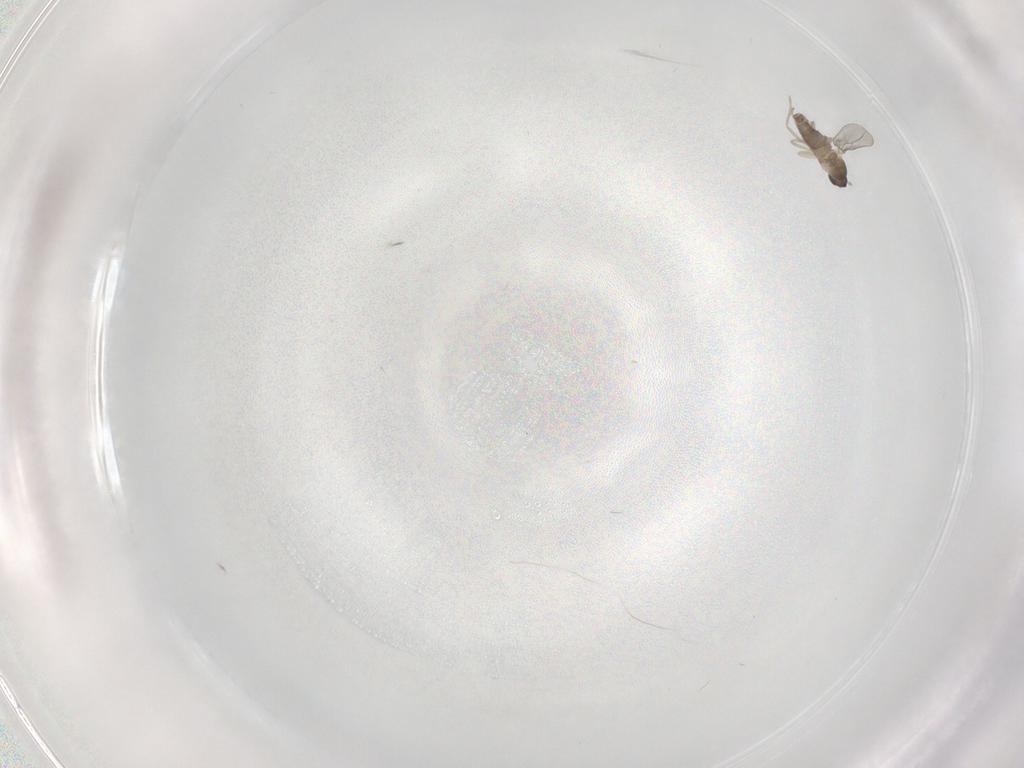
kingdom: Animalia
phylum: Arthropoda
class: Insecta
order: Diptera
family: Cecidomyiidae
